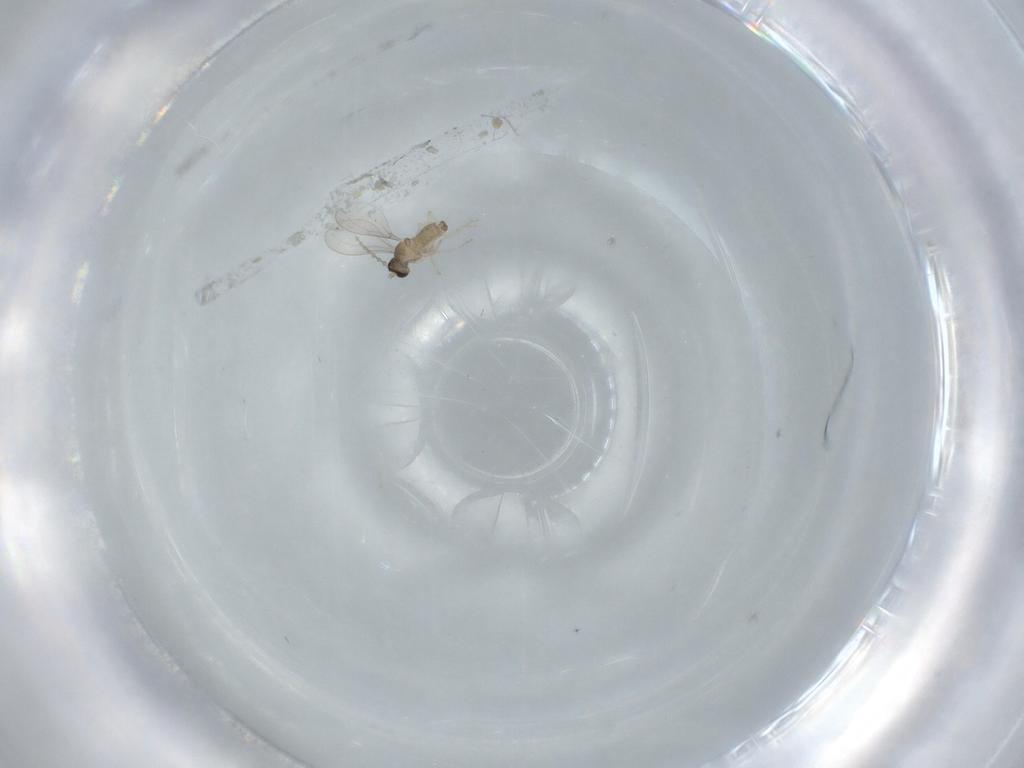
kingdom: Animalia
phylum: Arthropoda
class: Insecta
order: Diptera
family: Cecidomyiidae
